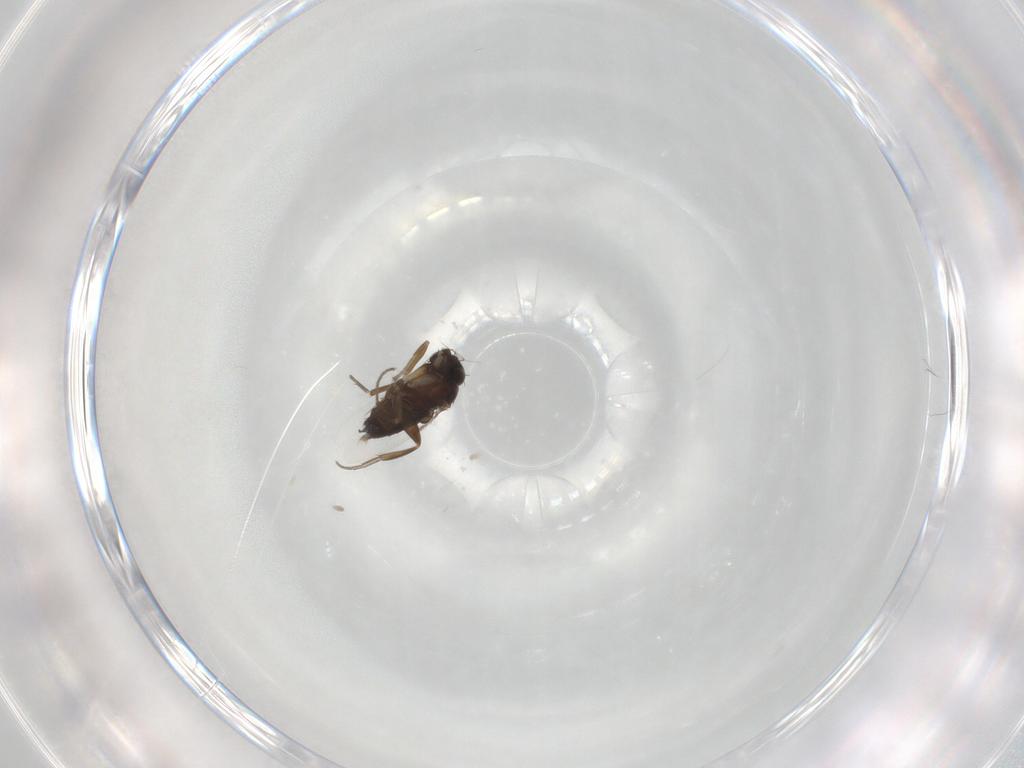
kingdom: Animalia
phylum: Arthropoda
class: Insecta
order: Diptera
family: Phoridae
